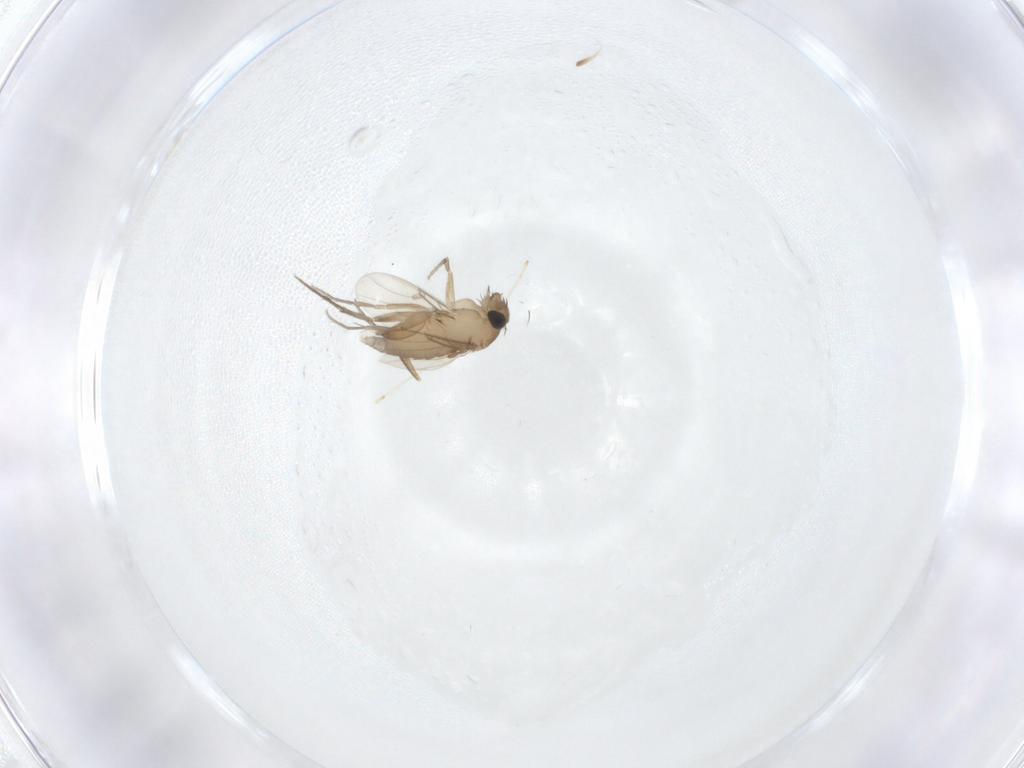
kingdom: Animalia
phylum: Arthropoda
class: Insecta
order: Diptera
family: Cecidomyiidae
